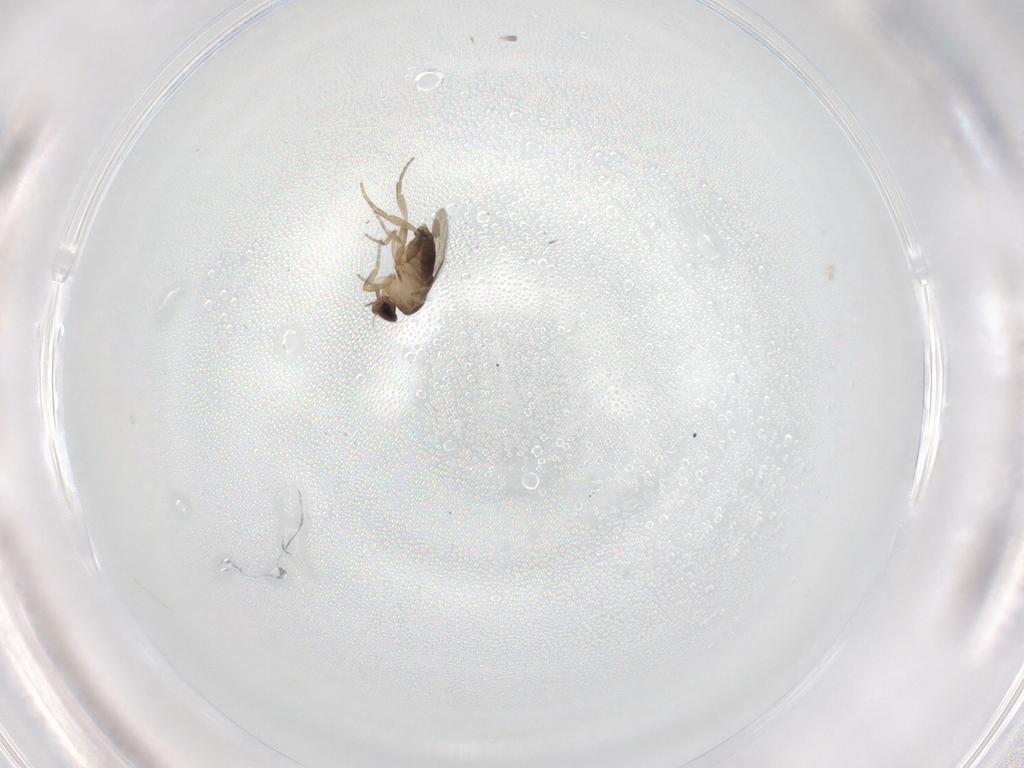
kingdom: Animalia
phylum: Arthropoda
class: Insecta
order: Diptera
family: Phoridae
